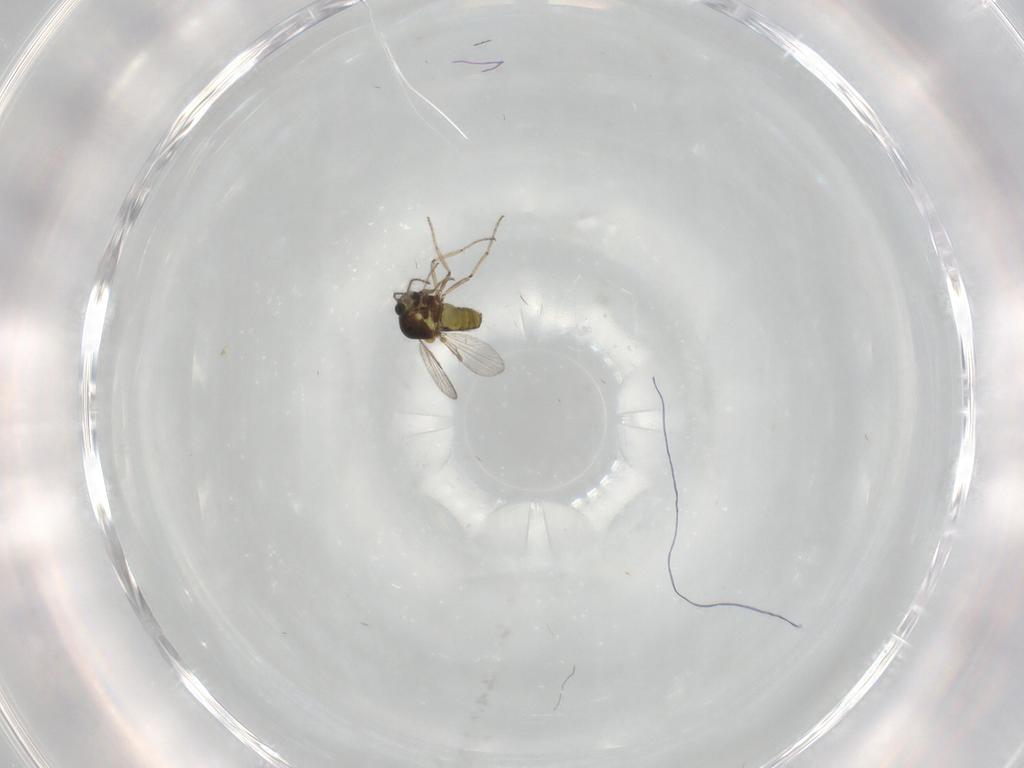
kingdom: Animalia
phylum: Arthropoda
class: Insecta
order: Diptera
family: Ceratopogonidae
